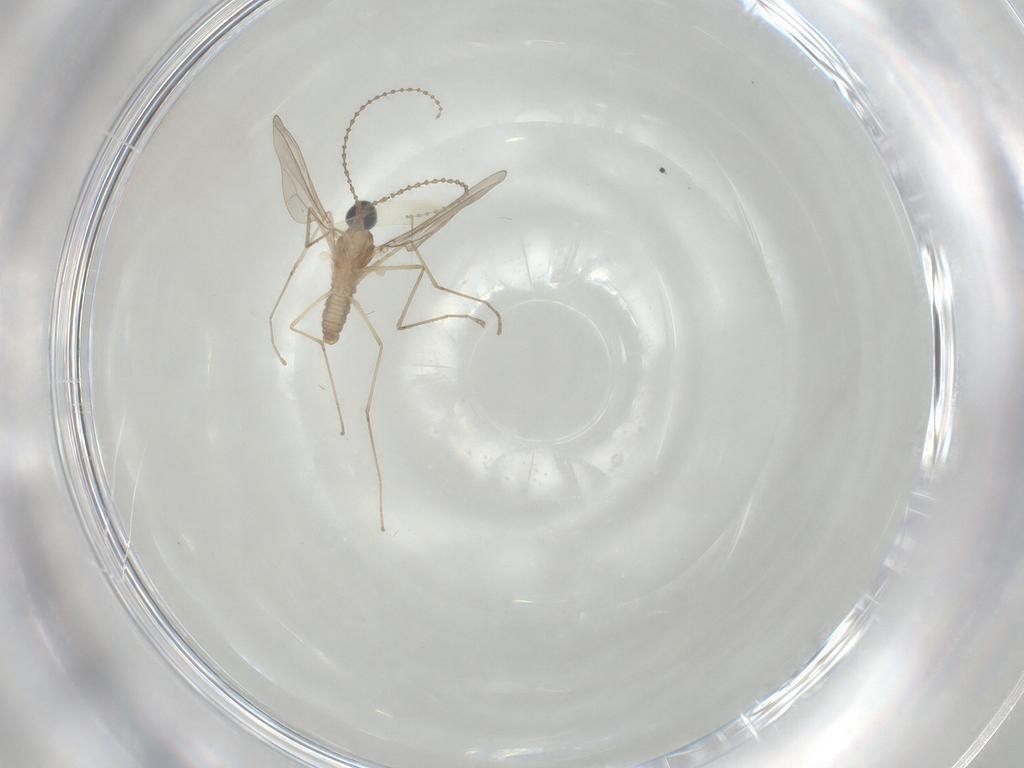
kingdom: Animalia
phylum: Arthropoda
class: Insecta
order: Diptera
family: Cecidomyiidae
